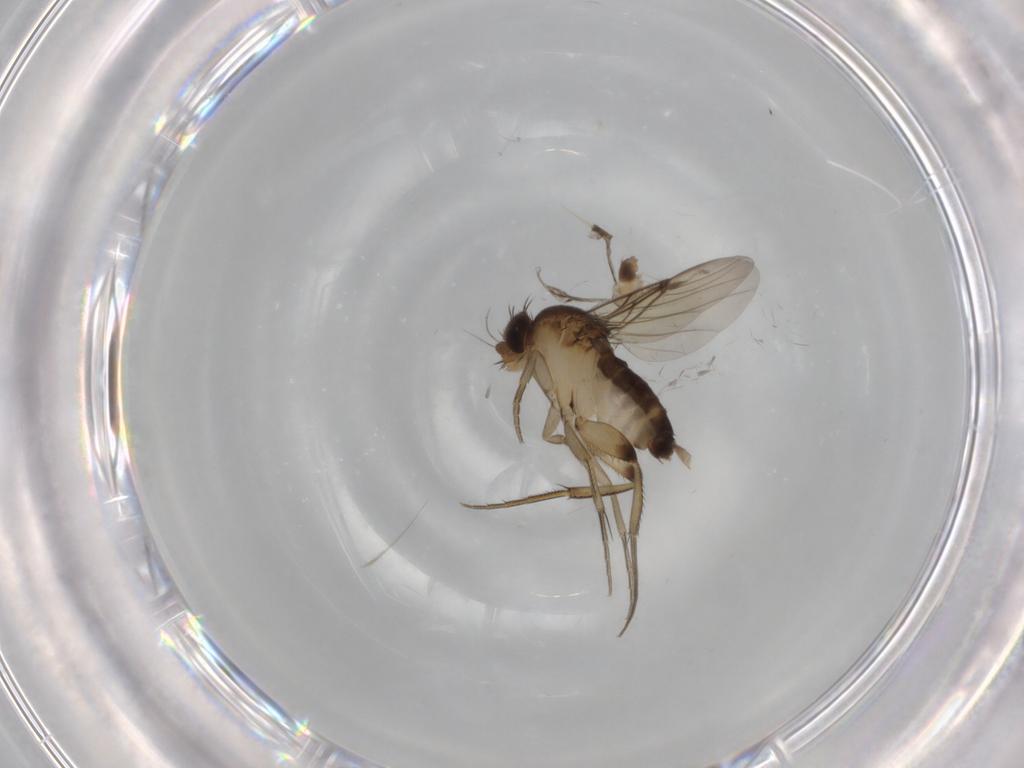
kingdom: Animalia
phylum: Arthropoda
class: Insecta
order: Diptera
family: Cecidomyiidae
